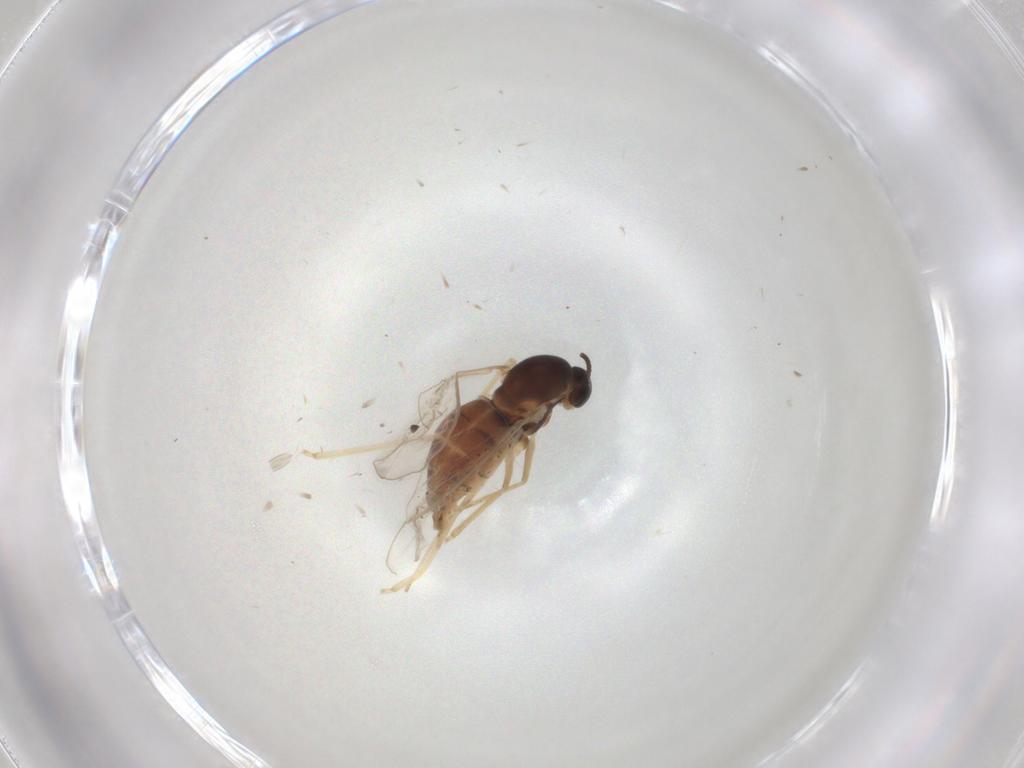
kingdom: Animalia
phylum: Arthropoda
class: Insecta
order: Diptera
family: Cecidomyiidae
